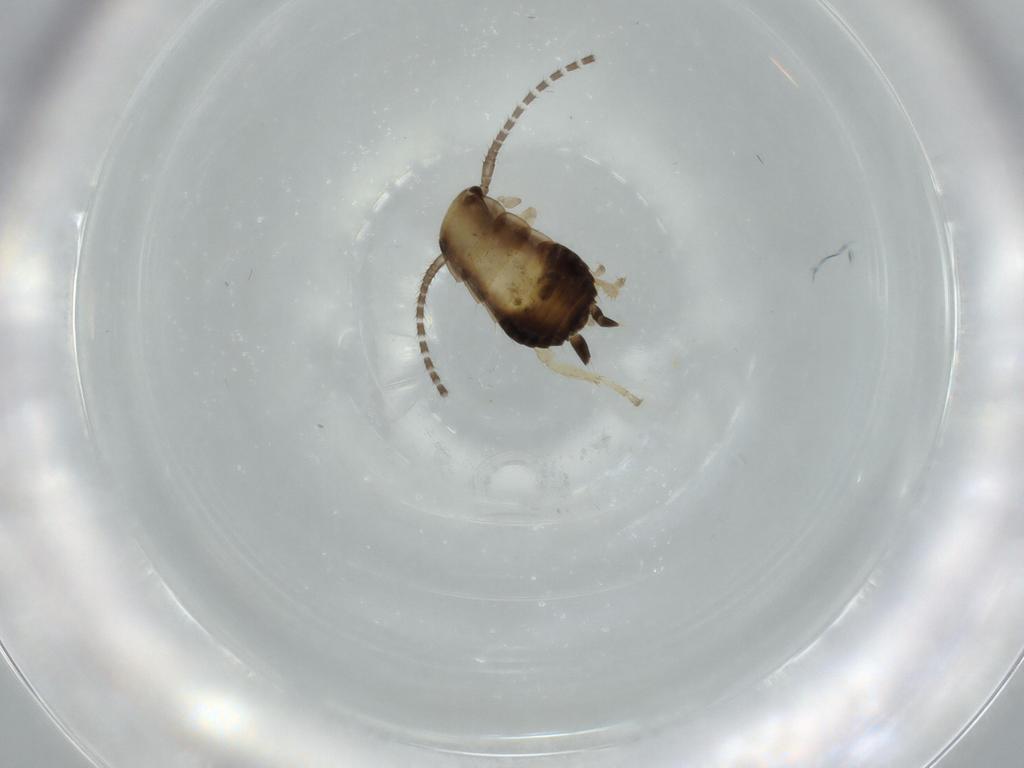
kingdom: Animalia
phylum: Arthropoda
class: Insecta
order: Blattodea
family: Ectobiidae
